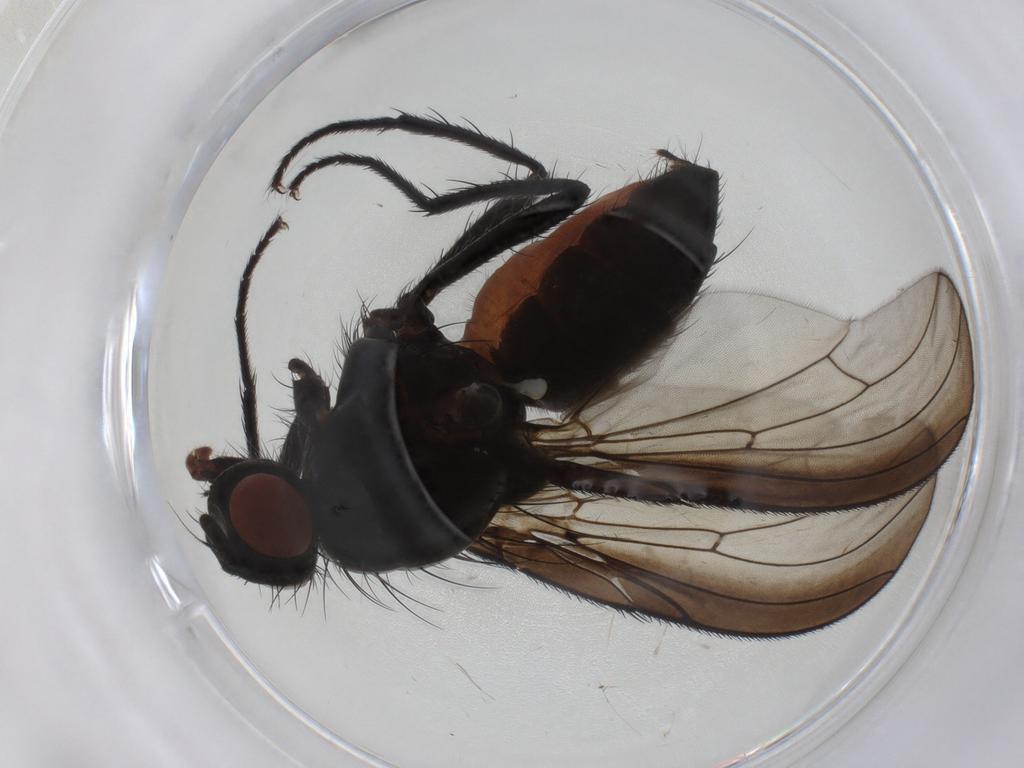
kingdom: Animalia
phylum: Arthropoda
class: Insecta
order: Diptera
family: Anthomyiidae
